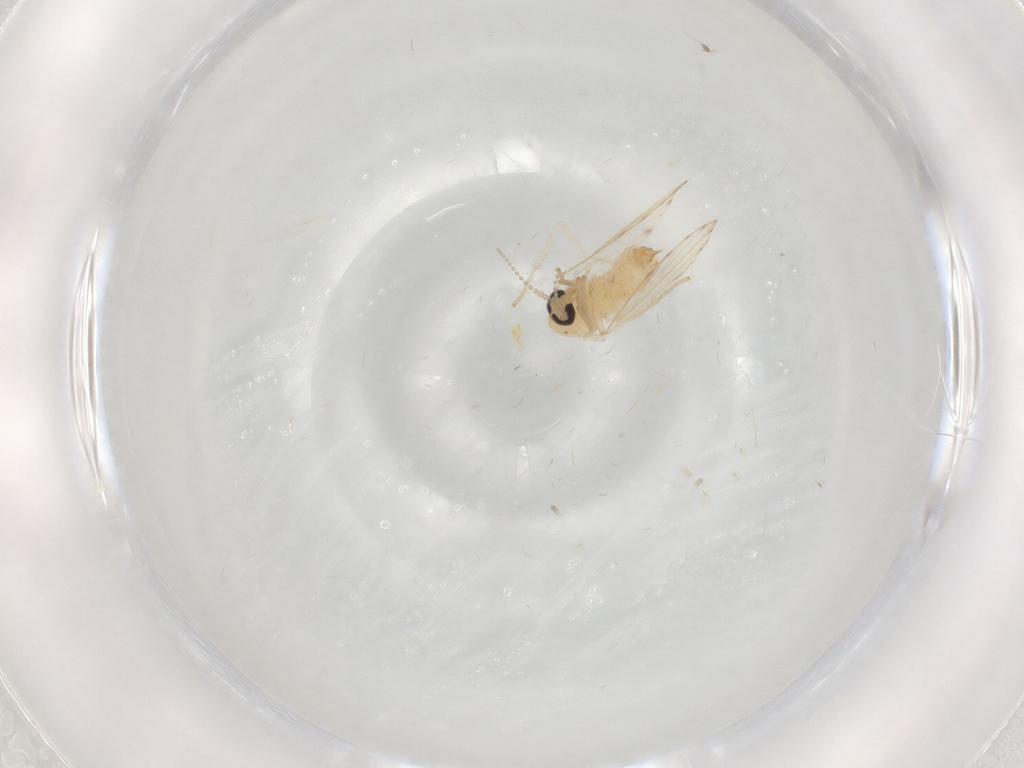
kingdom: Animalia
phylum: Arthropoda
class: Insecta
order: Diptera
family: Psychodidae
